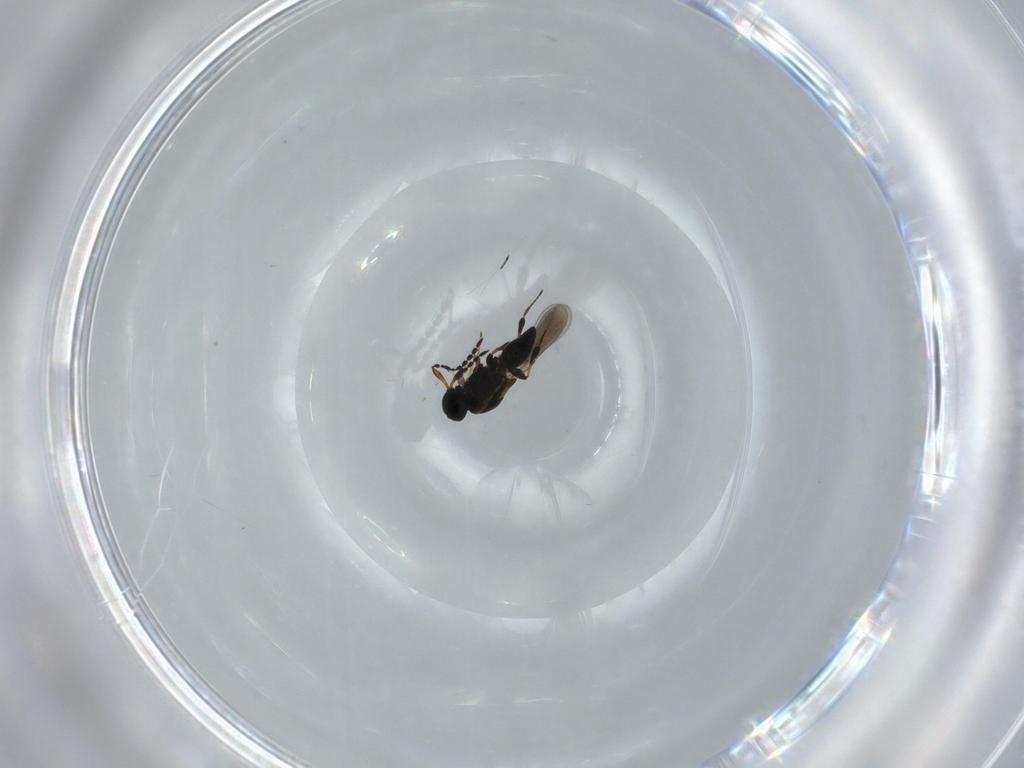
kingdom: Animalia
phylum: Arthropoda
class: Insecta
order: Hymenoptera
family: Platygastridae
